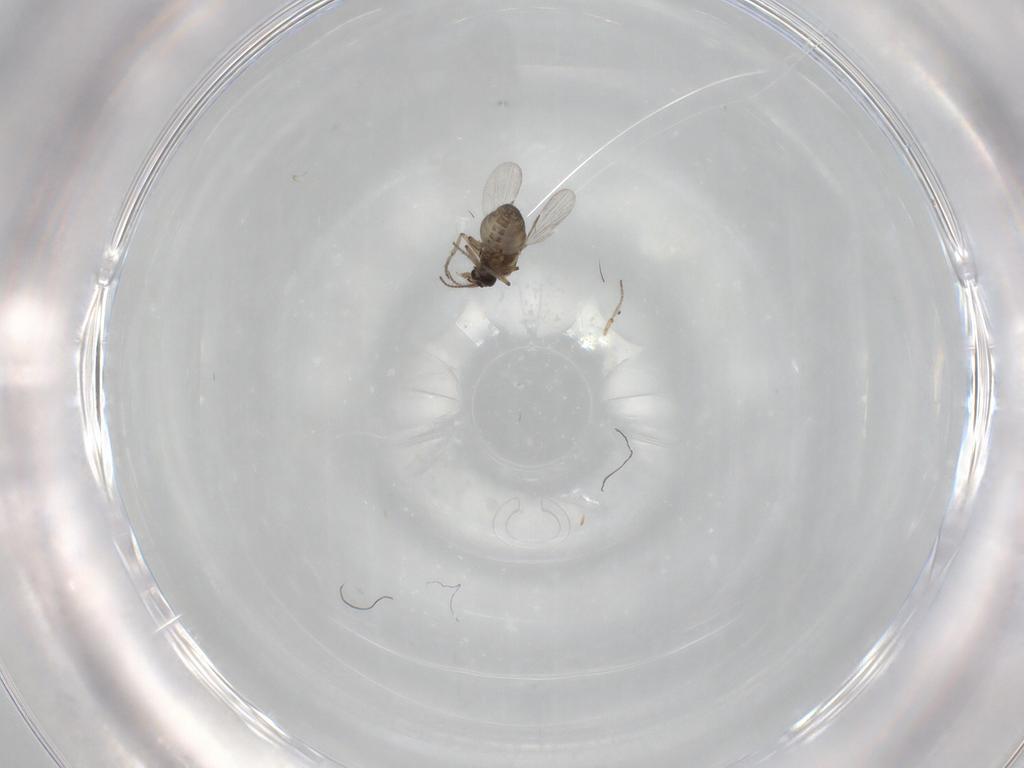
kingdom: Animalia
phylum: Arthropoda
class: Insecta
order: Diptera
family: Ceratopogonidae
